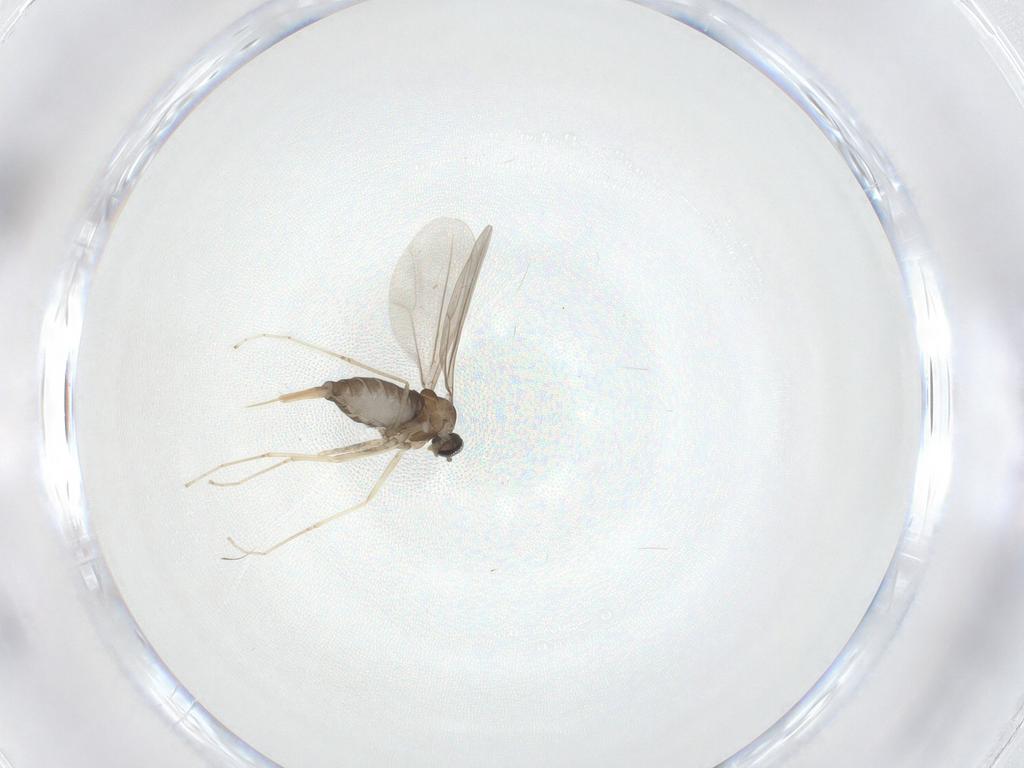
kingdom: Animalia
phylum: Arthropoda
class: Insecta
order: Diptera
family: Cecidomyiidae
